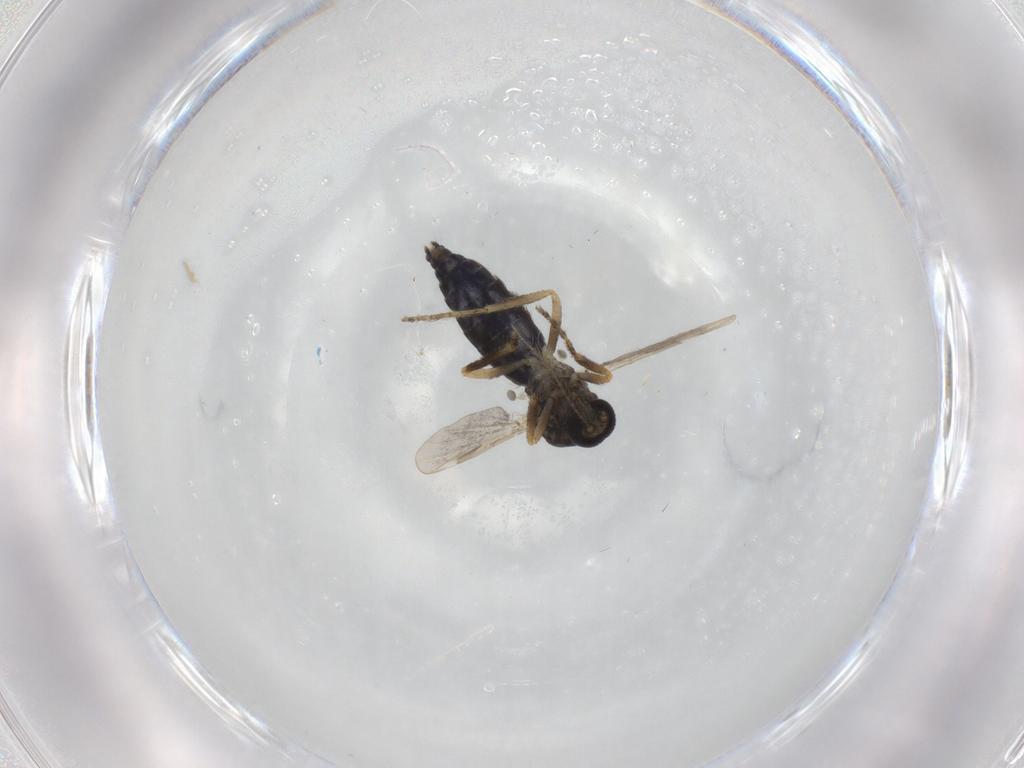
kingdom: Animalia
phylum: Arthropoda
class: Insecta
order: Diptera
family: Ceratopogonidae
